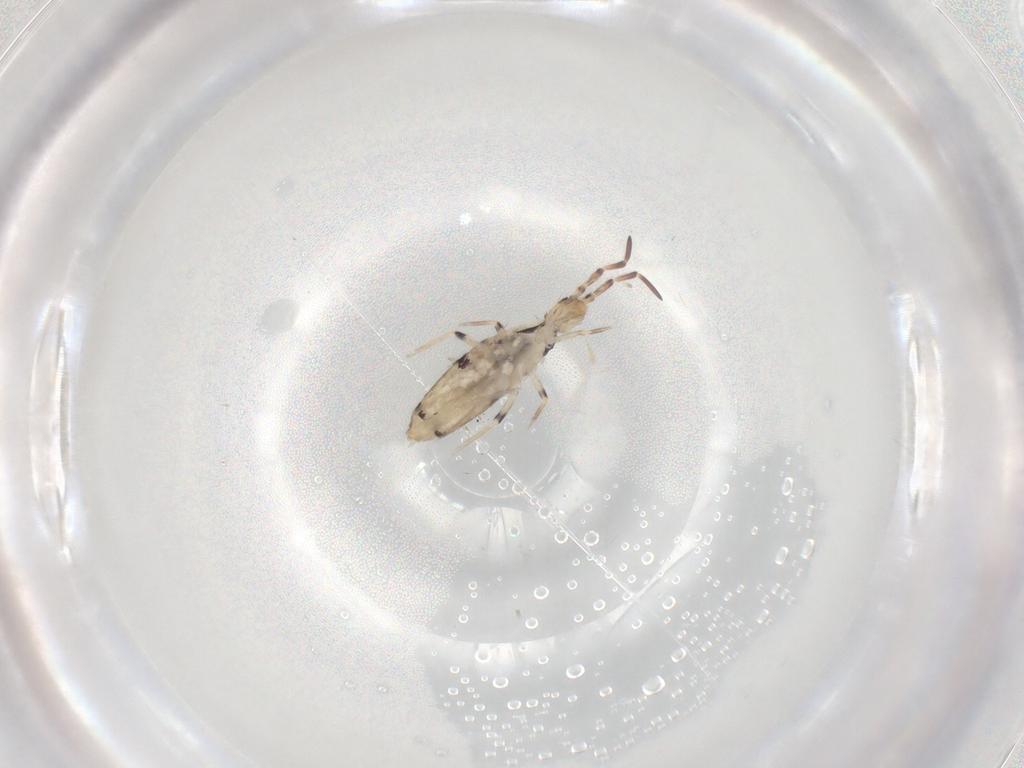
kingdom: Animalia
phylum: Arthropoda
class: Collembola
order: Entomobryomorpha
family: Entomobryidae
